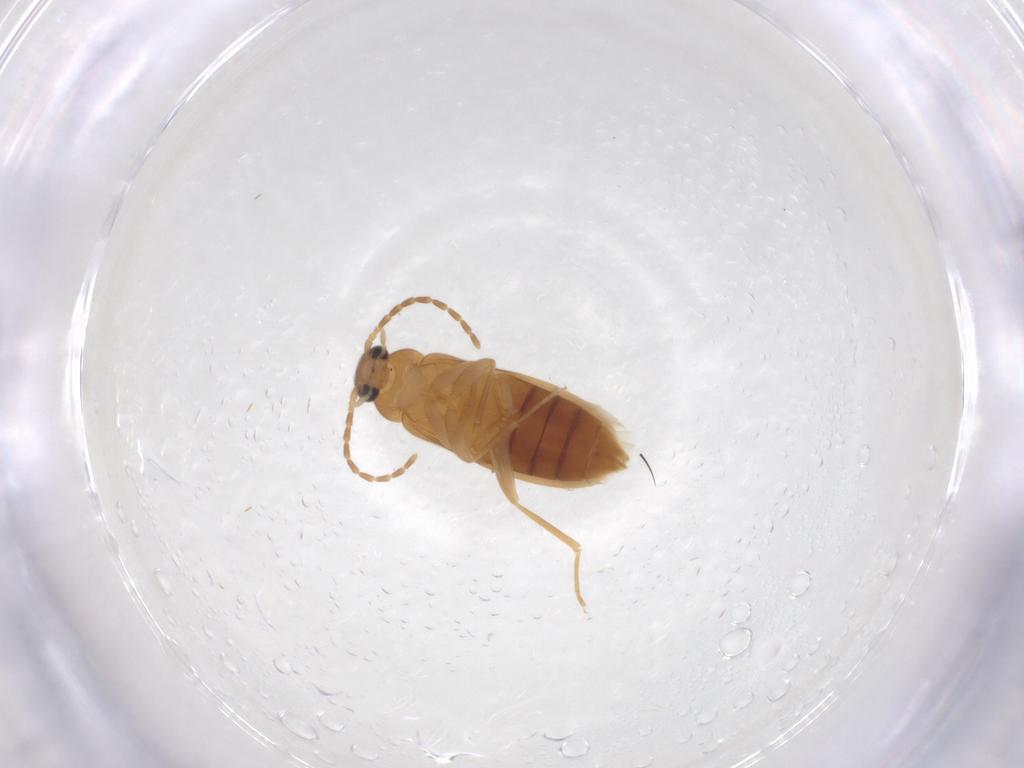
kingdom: Animalia
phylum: Arthropoda
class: Insecta
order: Coleoptera
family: Scraptiidae
